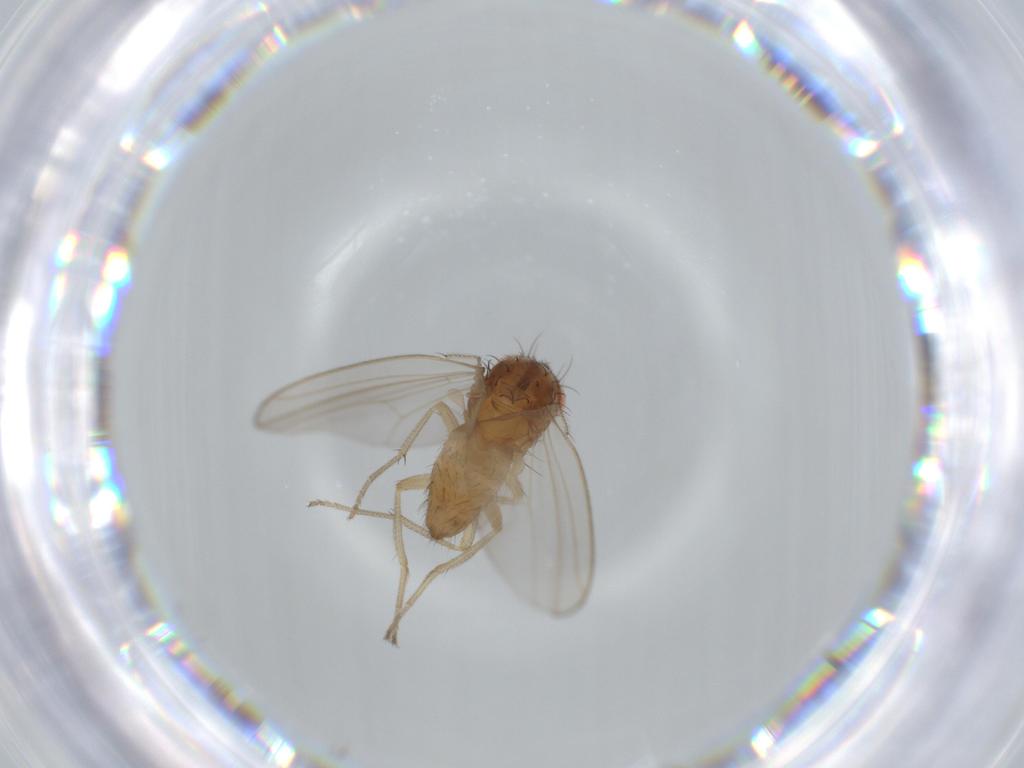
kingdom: Animalia
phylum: Arthropoda
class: Insecta
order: Diptera
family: Drosophilidae
